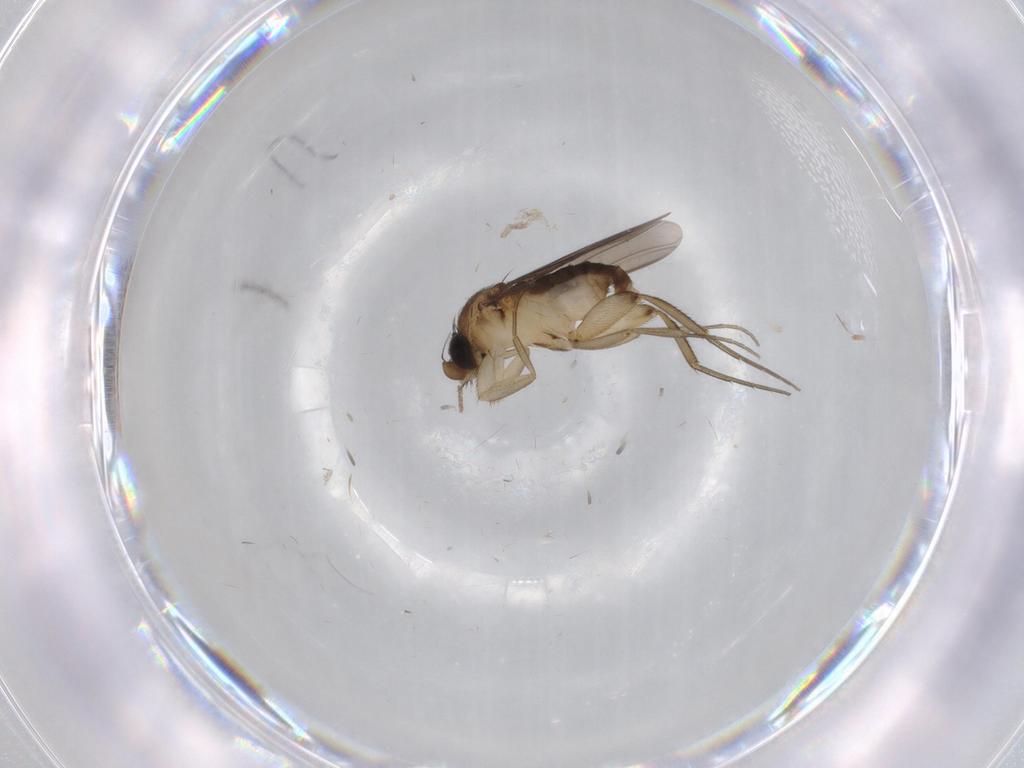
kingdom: Animalia
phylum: Arthropoda
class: Insecta
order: Diptera
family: Phoridae
